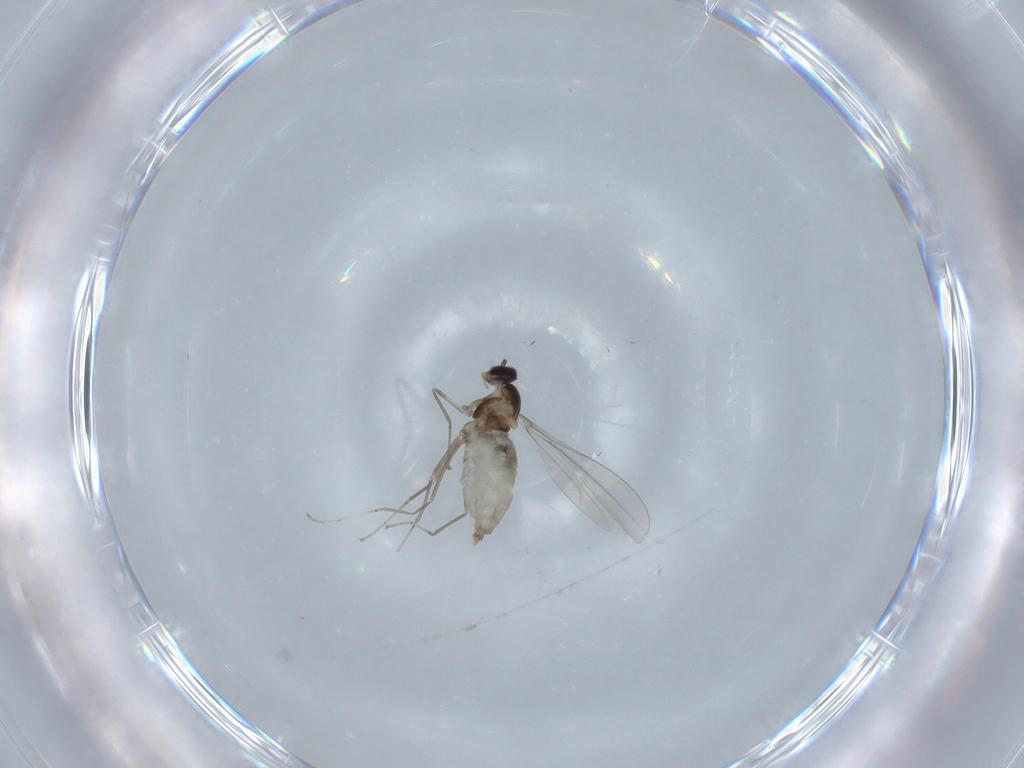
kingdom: Animalia
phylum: Arthropoda
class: Insecta
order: Diptera
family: Cecidomyiidae
